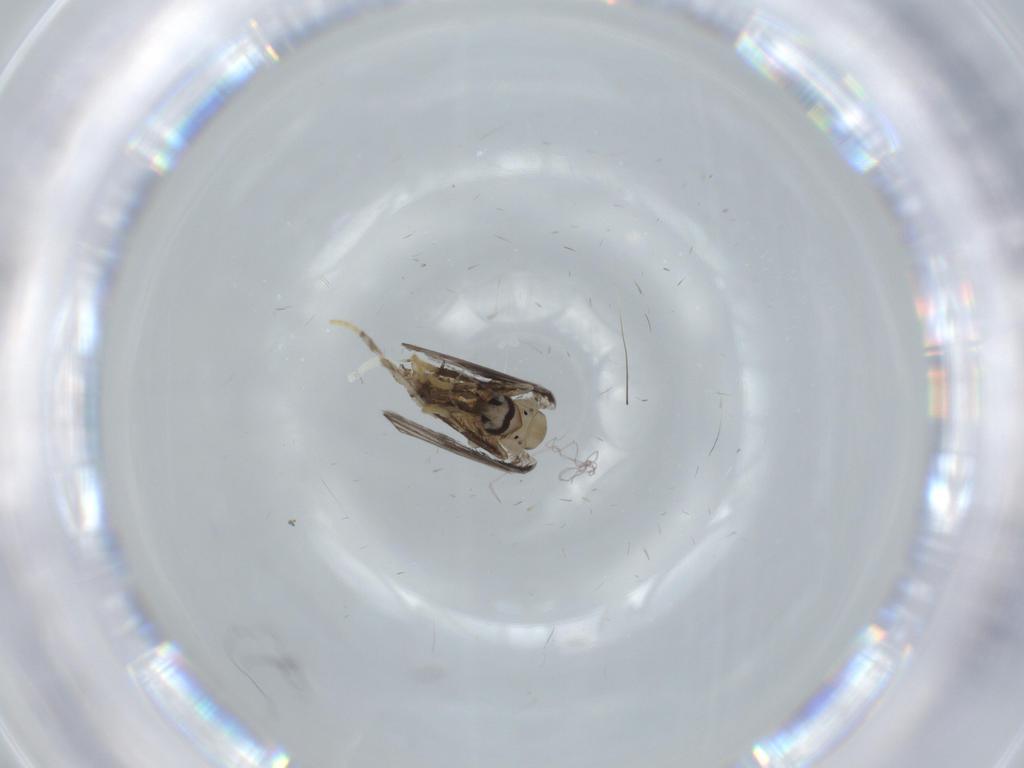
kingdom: Animalia
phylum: Arthropoda
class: Insecta
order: Diptera
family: Psychodidae
